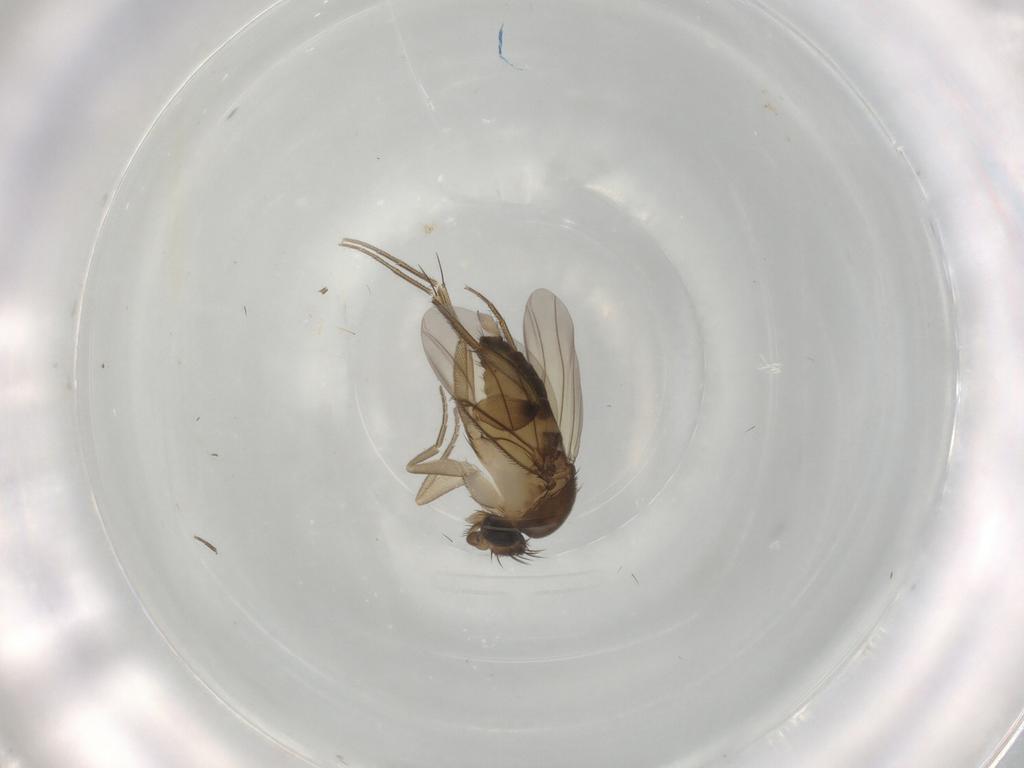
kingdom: Animalia
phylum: Arthropoda
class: Insecta
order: Diptera
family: Phoridae
